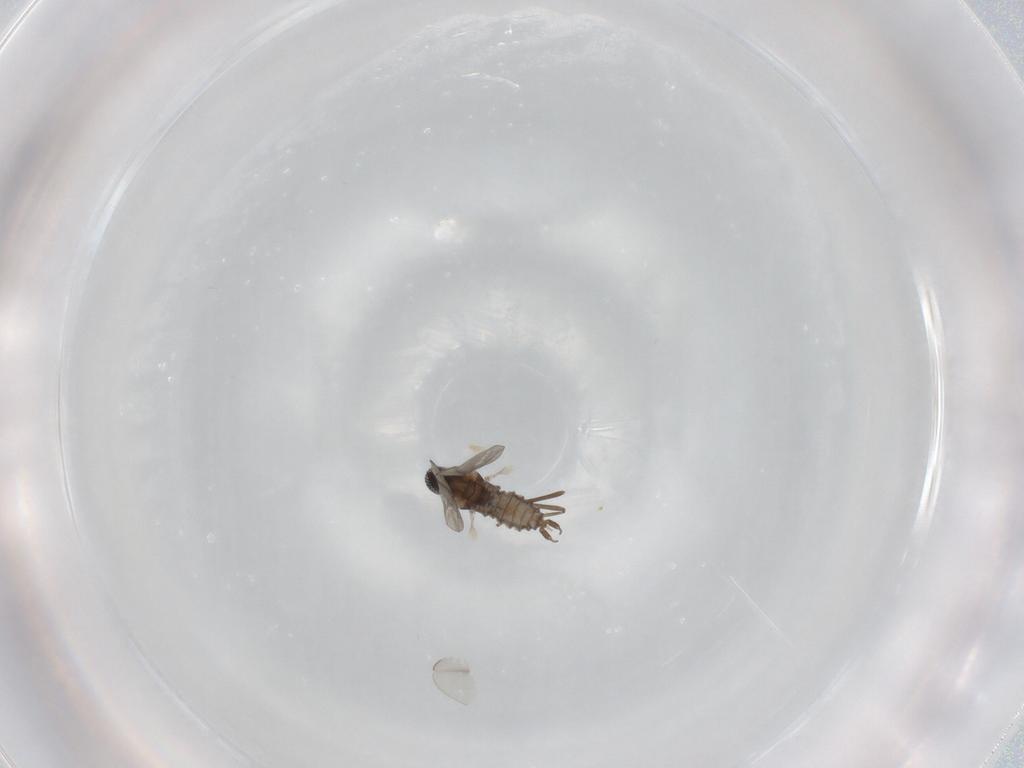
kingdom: Animalia
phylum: Arthropoda
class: Insecta
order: Diptera
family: Cecidomyiidae
